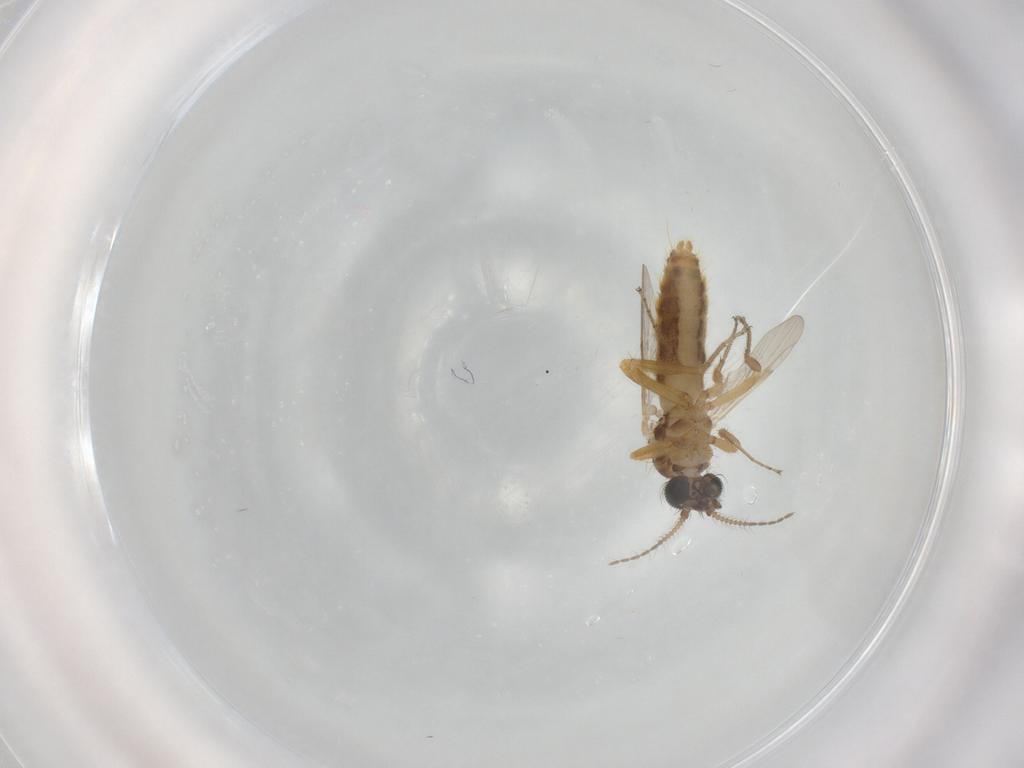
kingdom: Animalia
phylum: Arthropoda
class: Insecta
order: Diptera
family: Ceratopogonidae
